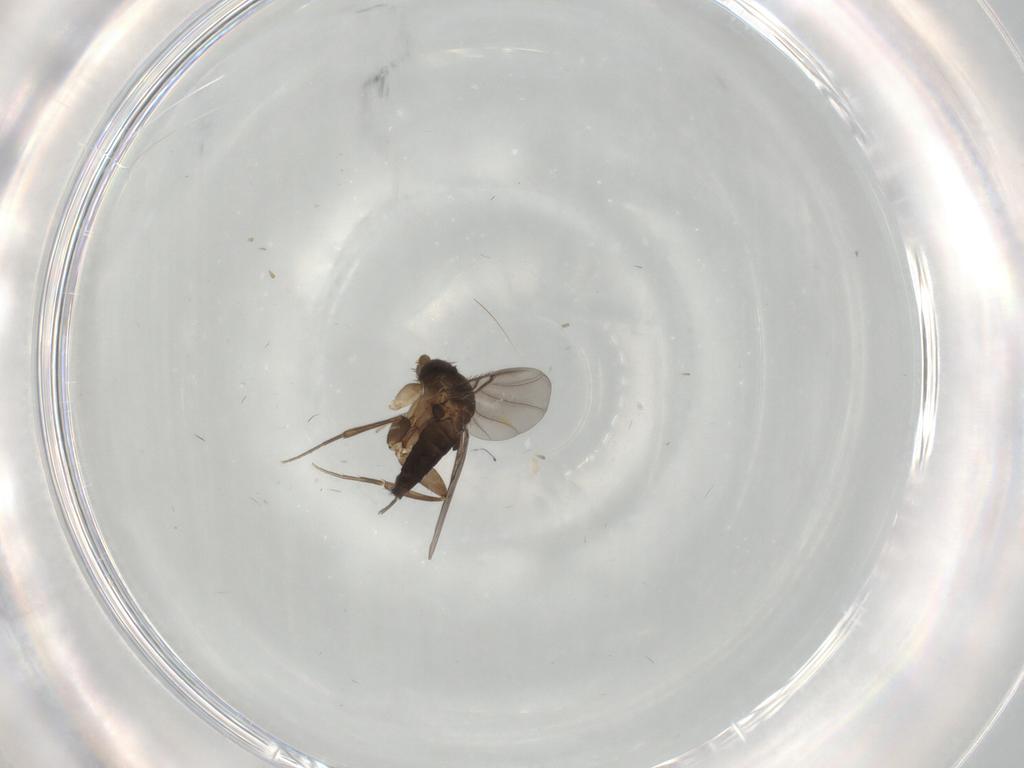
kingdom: Animalia
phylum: Arthropoda
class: Insecta
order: Diptera
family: Phoridae
